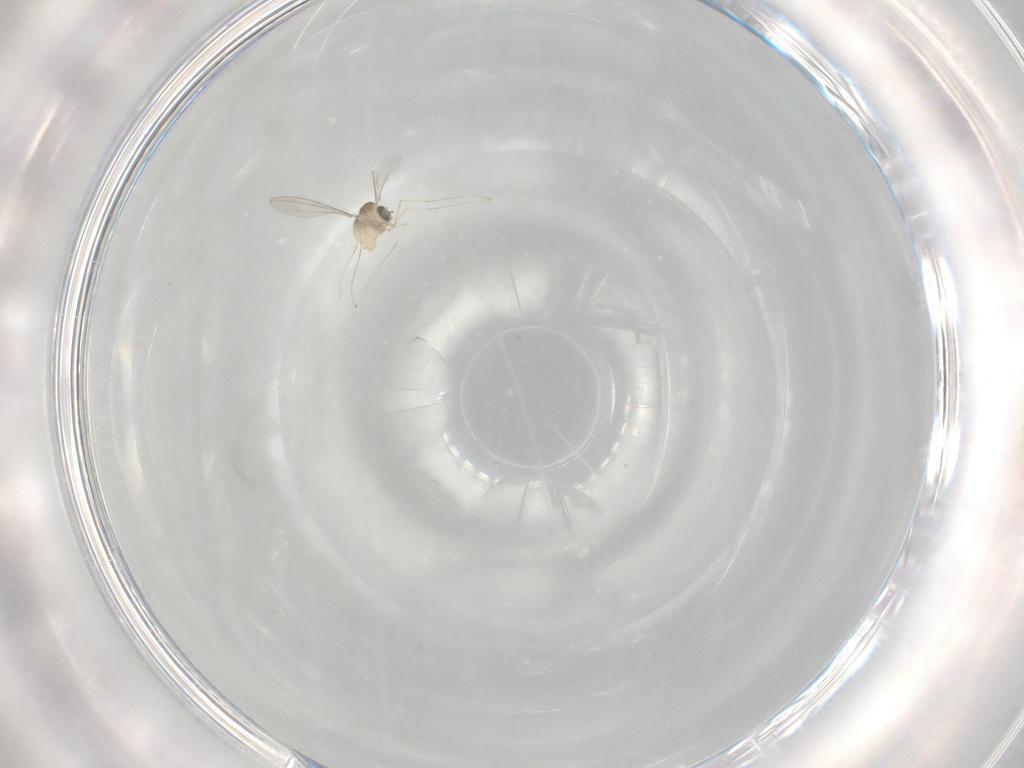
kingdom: Animalia
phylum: Arthropoda
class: Insecta
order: Diptera
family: Cecidomyiidae
